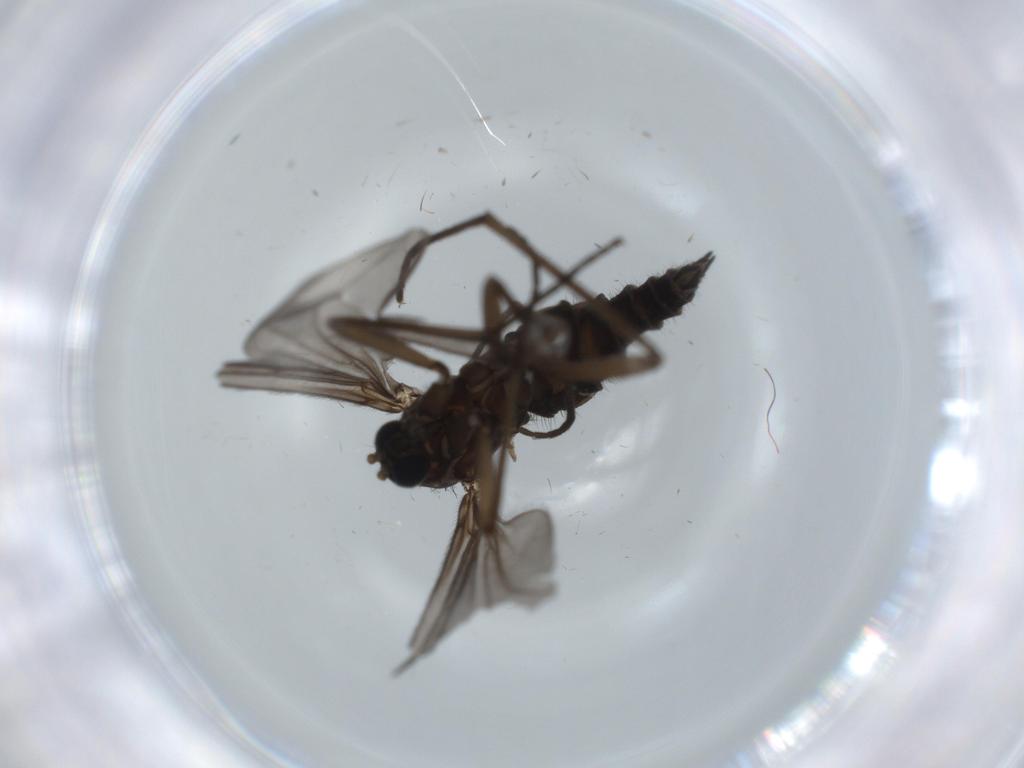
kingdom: Animalia
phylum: Arthropoda
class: Insecta
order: Diptera
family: Sciaridae
